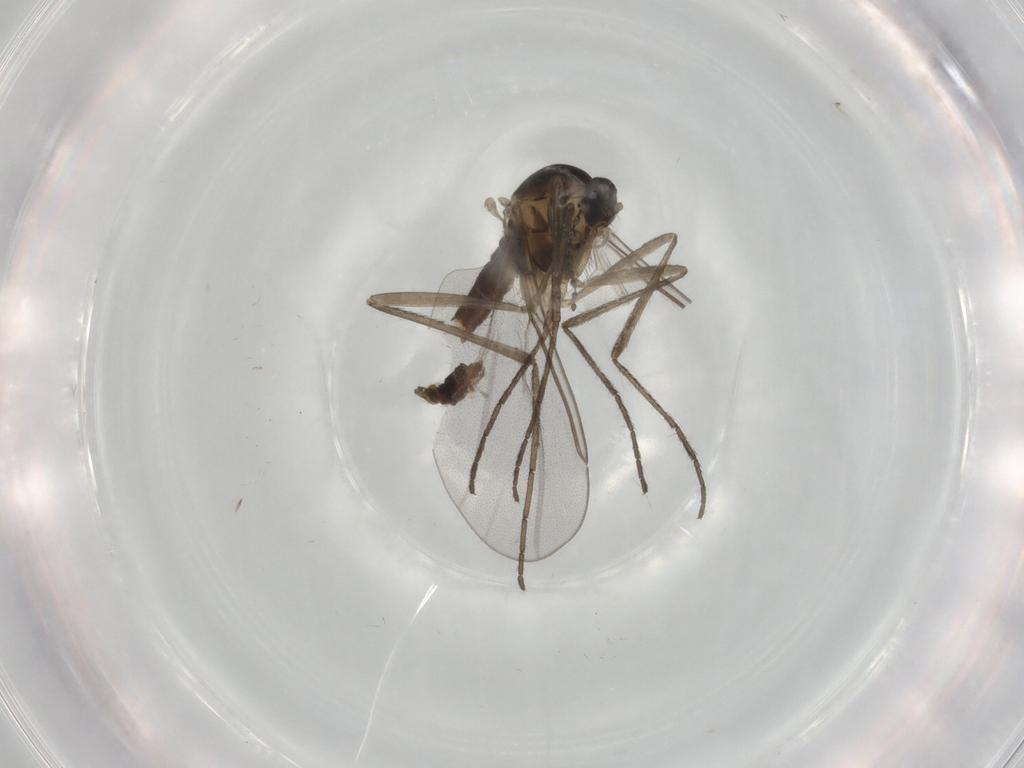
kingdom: Animalia
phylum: Arthropoda
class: Insecta
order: Diptera
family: Cecidomyiidae
